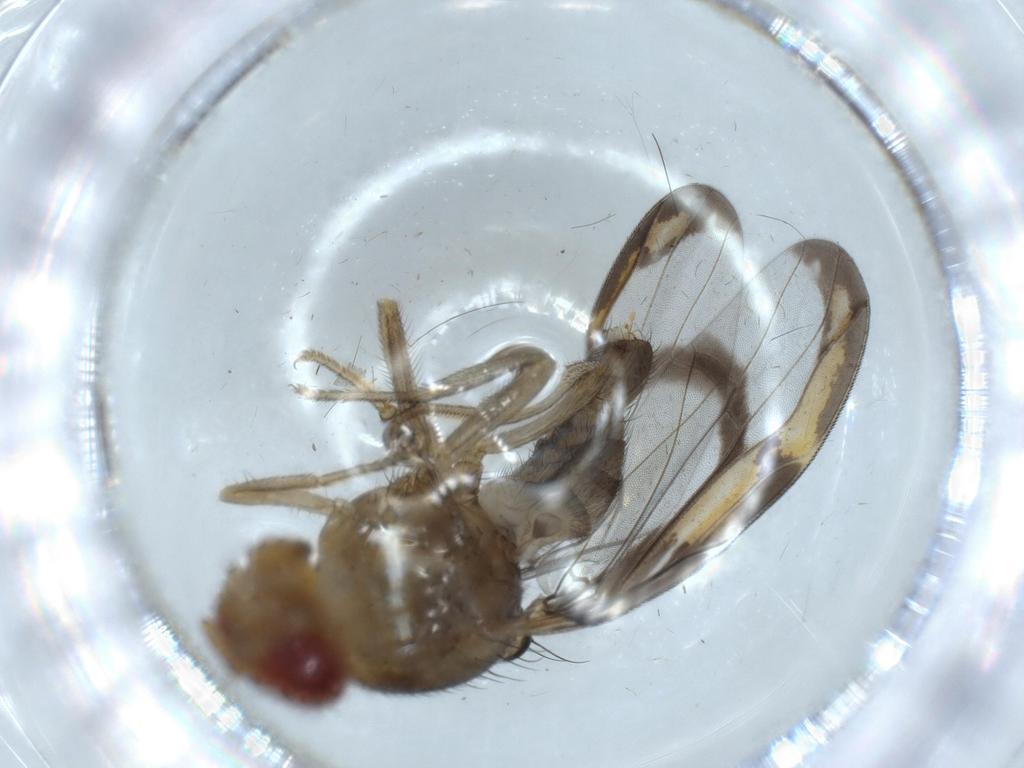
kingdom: Animalia
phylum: Arthropoda
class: Insecta
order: Diptera
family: Ulidiidae
